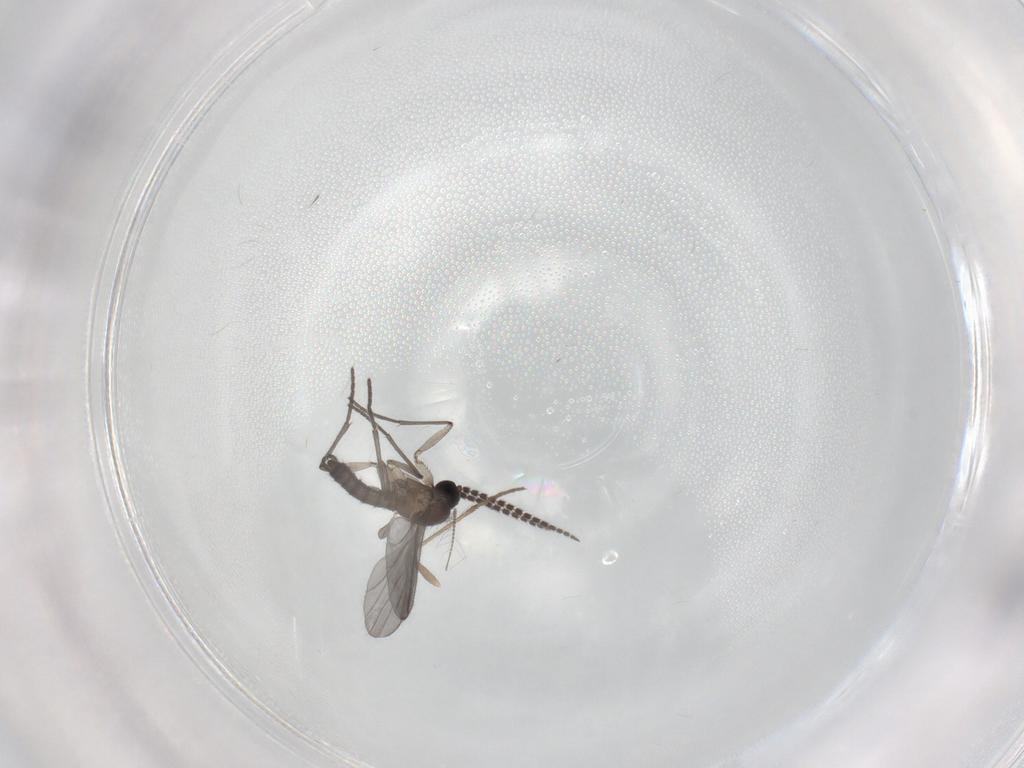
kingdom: Animalia
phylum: Arthropoda
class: Insecta
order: Diptera
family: Chironomidae
